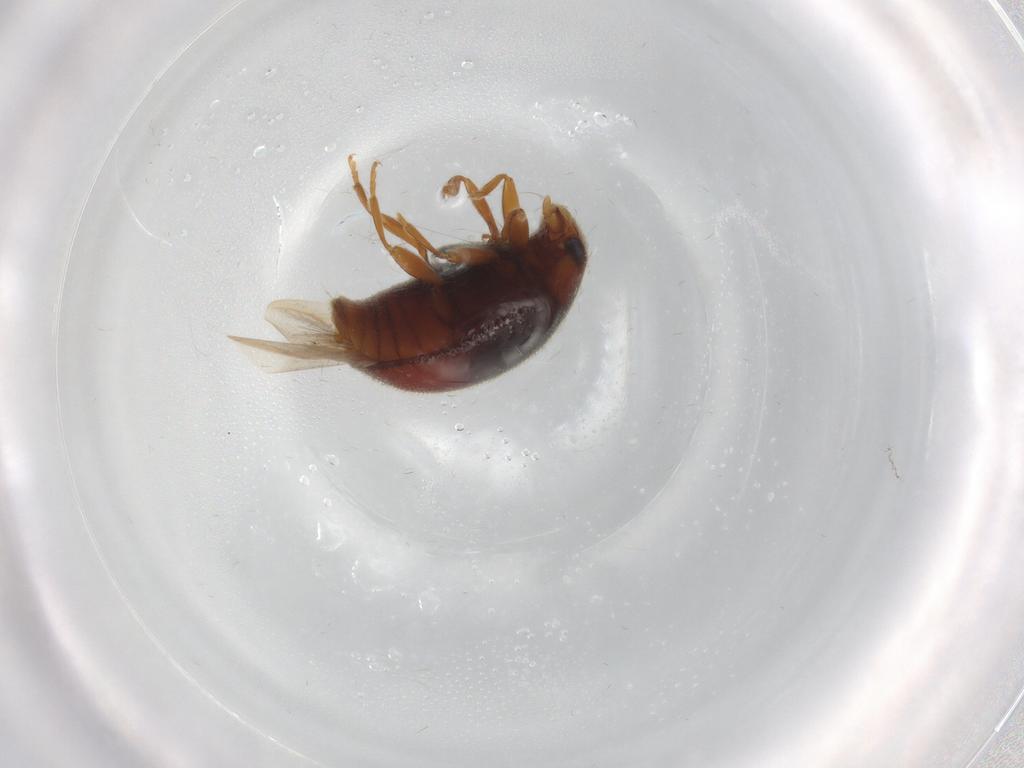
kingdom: Animalia
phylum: Arthropoda
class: Insecta
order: Coleoptera
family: Coccinellidae
